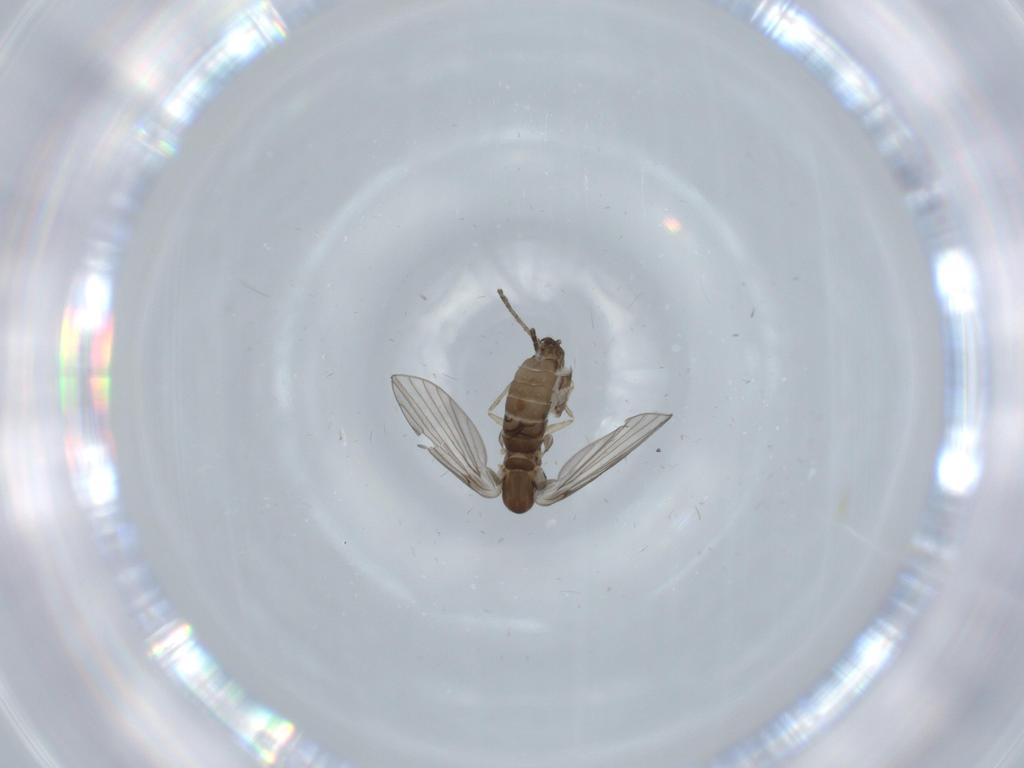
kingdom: Animalia
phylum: Arthropoda
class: Insecta
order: Diptera
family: Psychodidae
